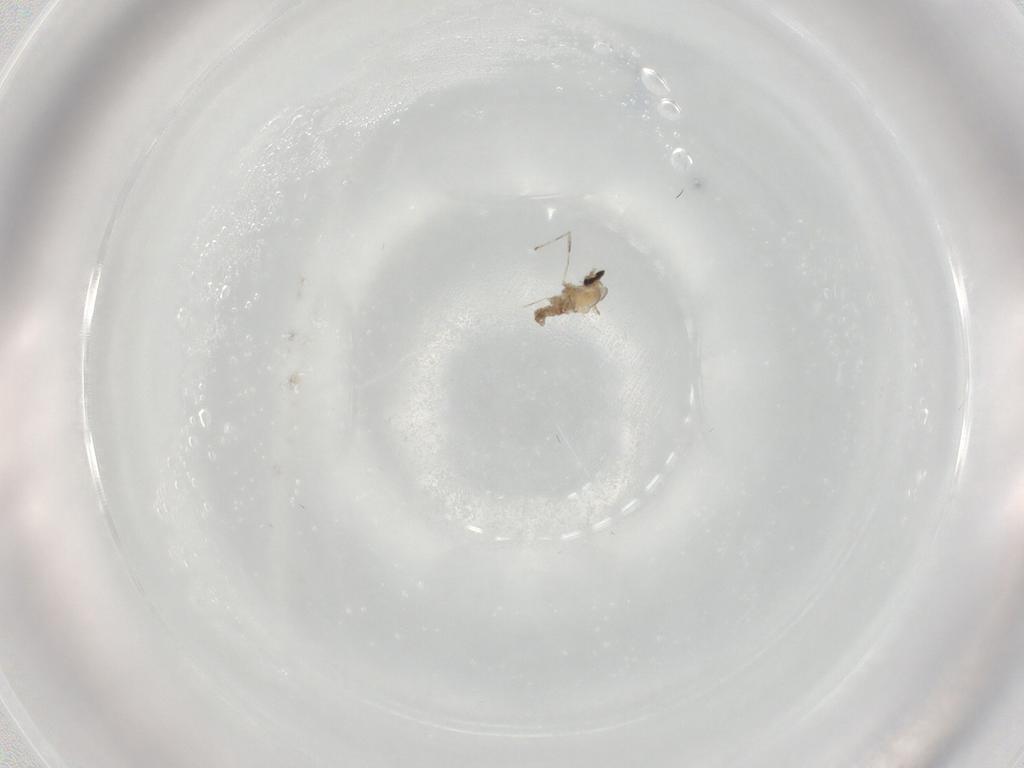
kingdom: Animalia
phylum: Arthropoda
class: Insecta
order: Diptera
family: Cecidomyiidae
